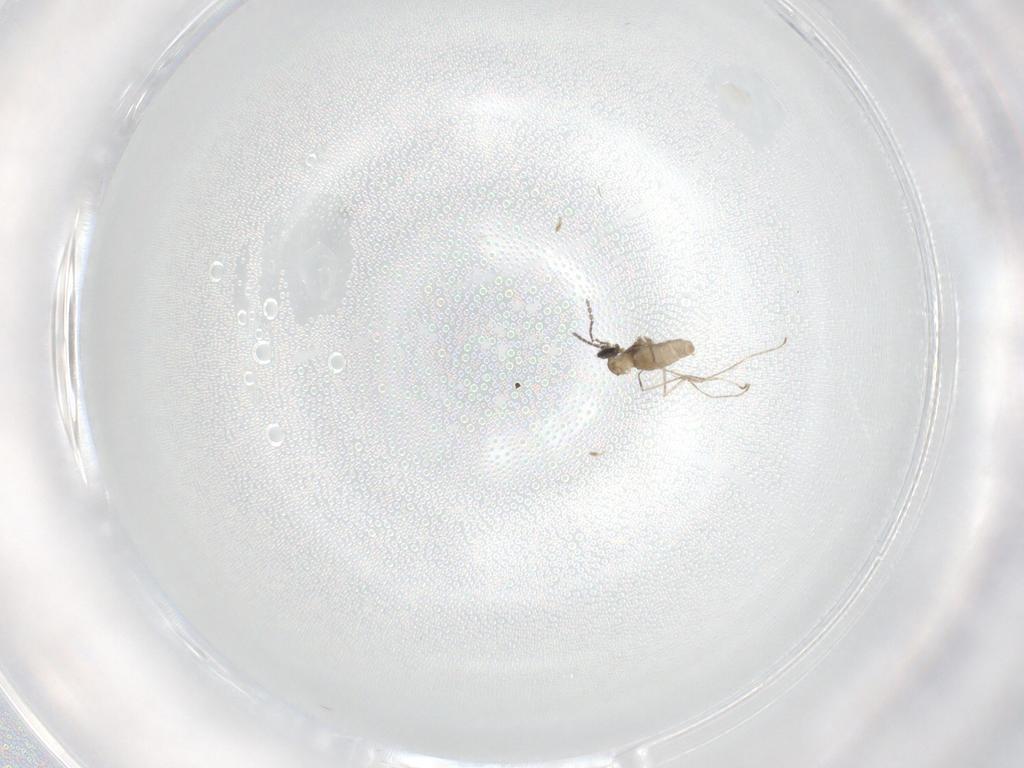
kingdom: Animalia
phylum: Arthropoda
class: Insecta
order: Diptera
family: Cecidomyiidae
